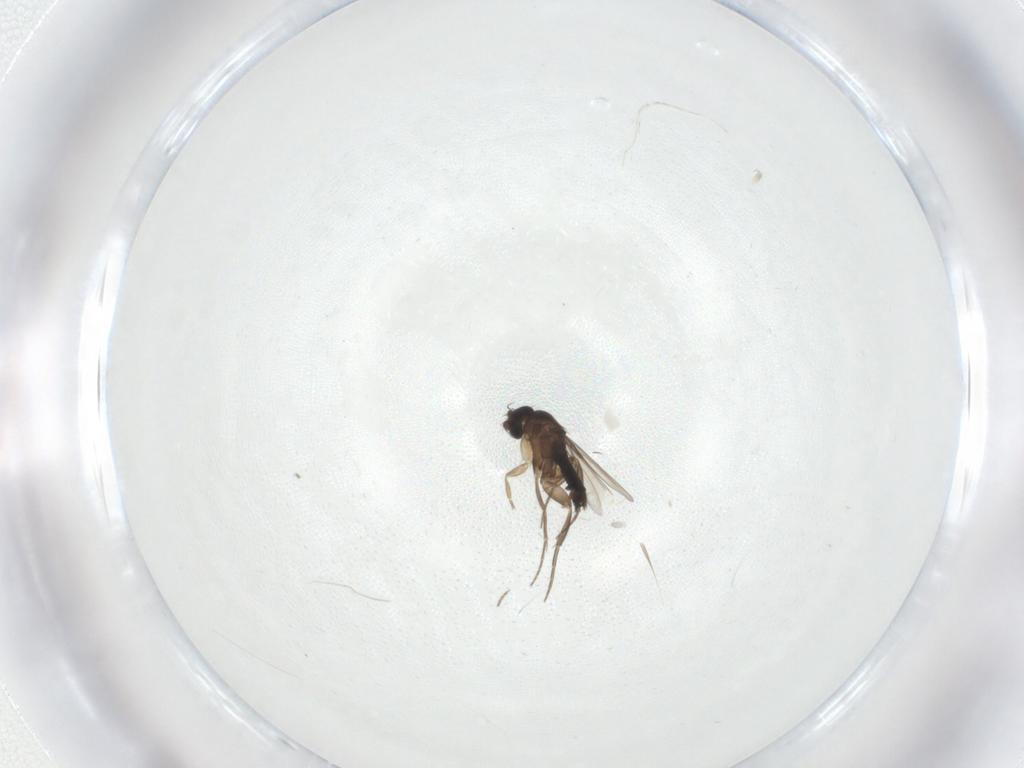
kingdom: Animalia
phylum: Arthropoda
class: Insecta
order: Diptera
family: Phoridae
